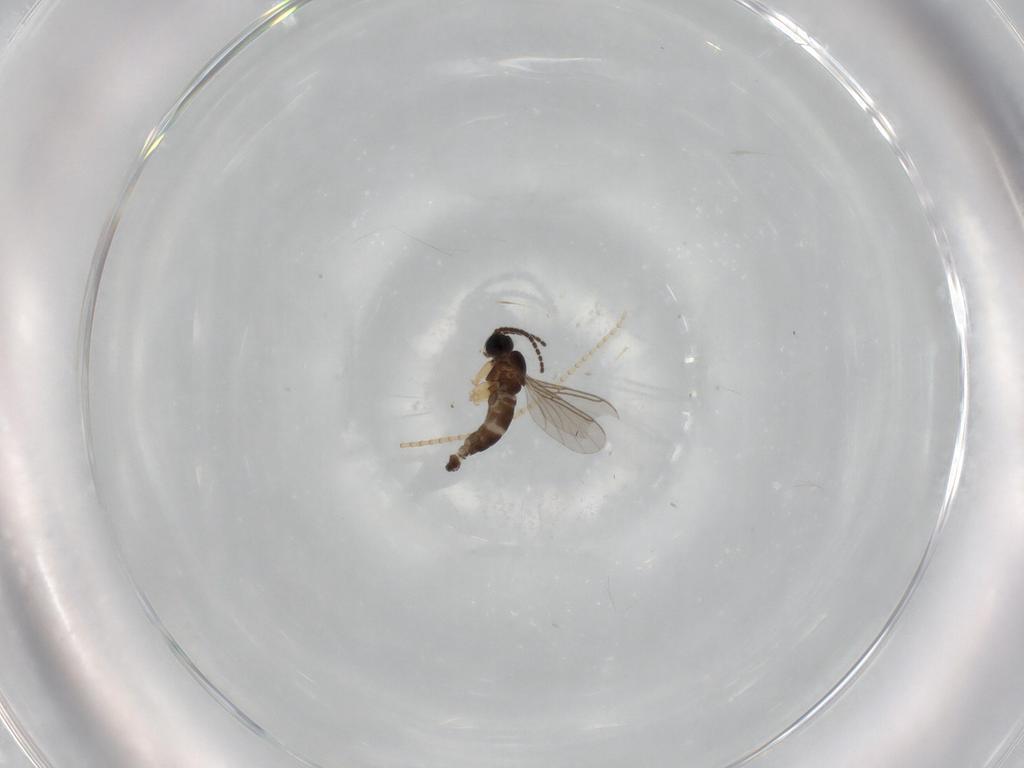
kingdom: Animalia
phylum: Arthropoda
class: Insecta
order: Diptera
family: Sciaridae
